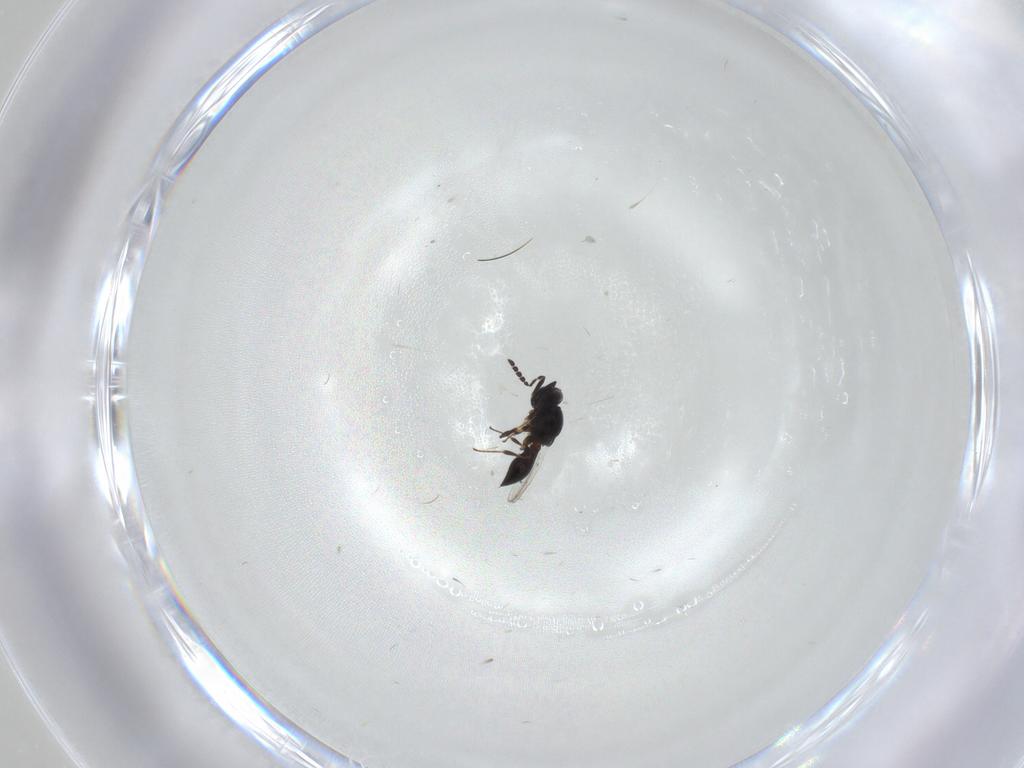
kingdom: Animalia
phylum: Arthropoda
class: Insecta
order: Hymenoptera
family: Platygastridae
